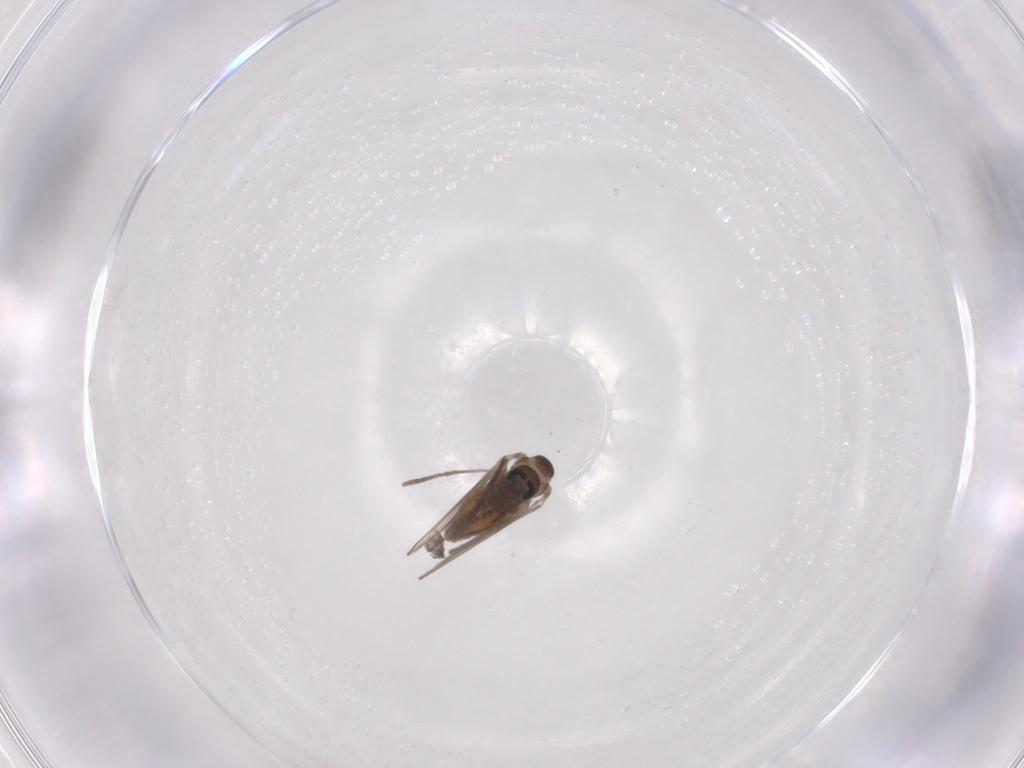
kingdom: Animalia
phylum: Arthropoda
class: Insecta
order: Diptera
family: Psychodidae
